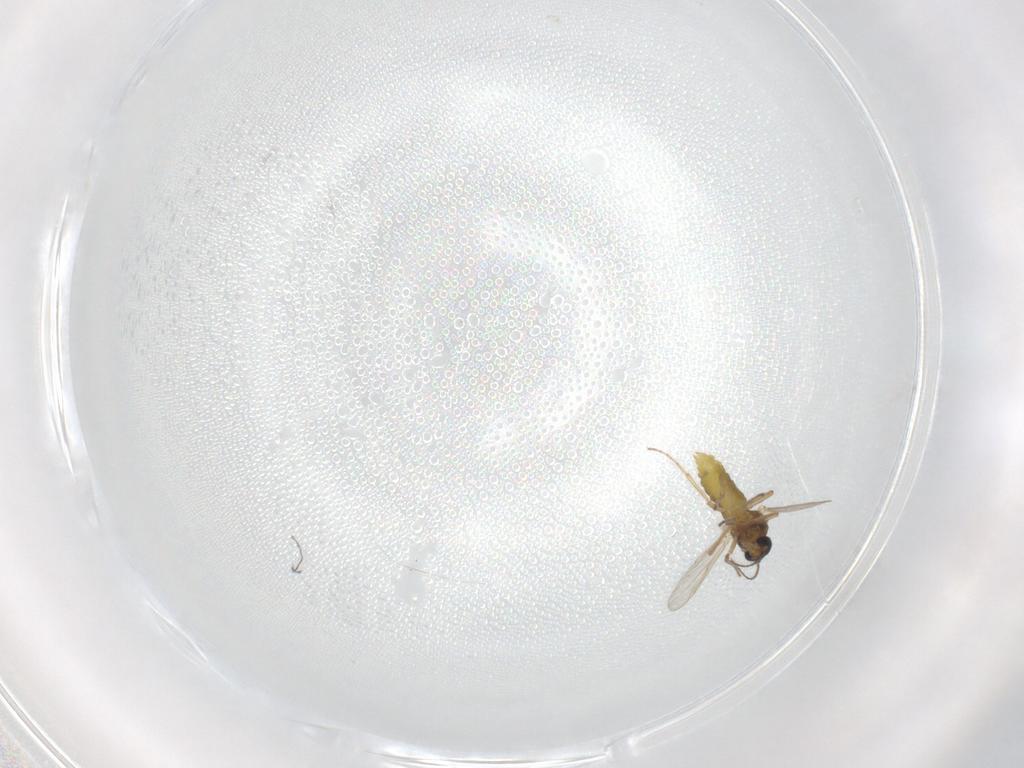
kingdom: Animalia
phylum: Arthropoda
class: Insecta
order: Diptera
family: Ceratopogonidae
